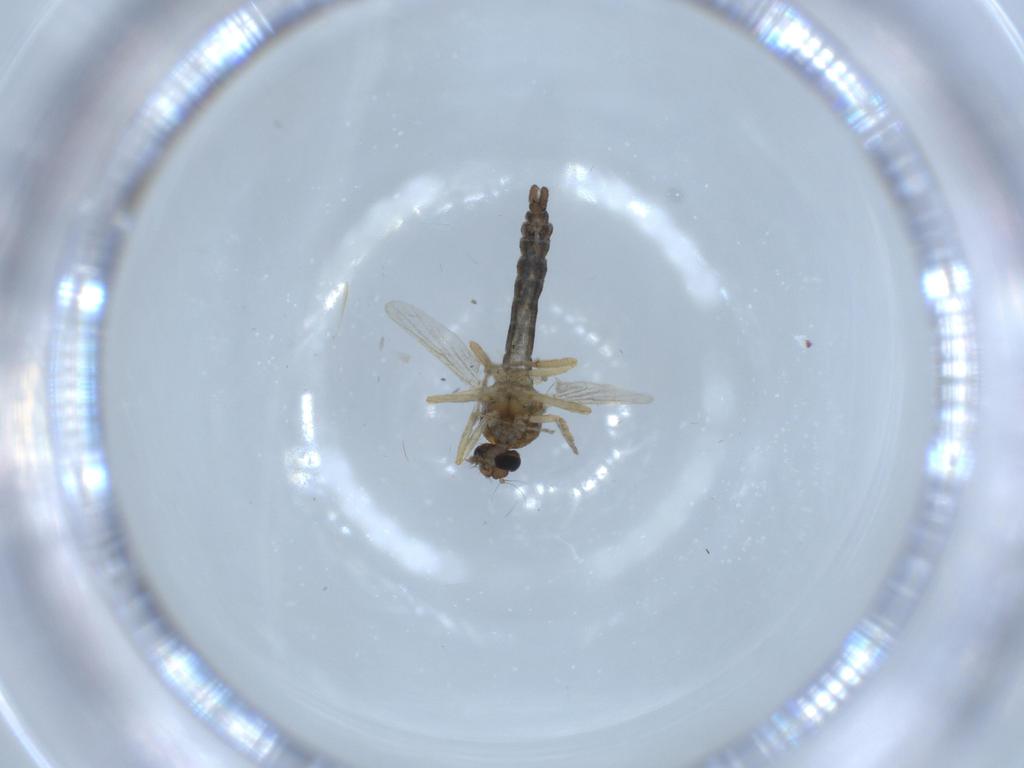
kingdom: Animalia
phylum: Arthropoda
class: Insecta
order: Diptera
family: Ceratopogonidae
